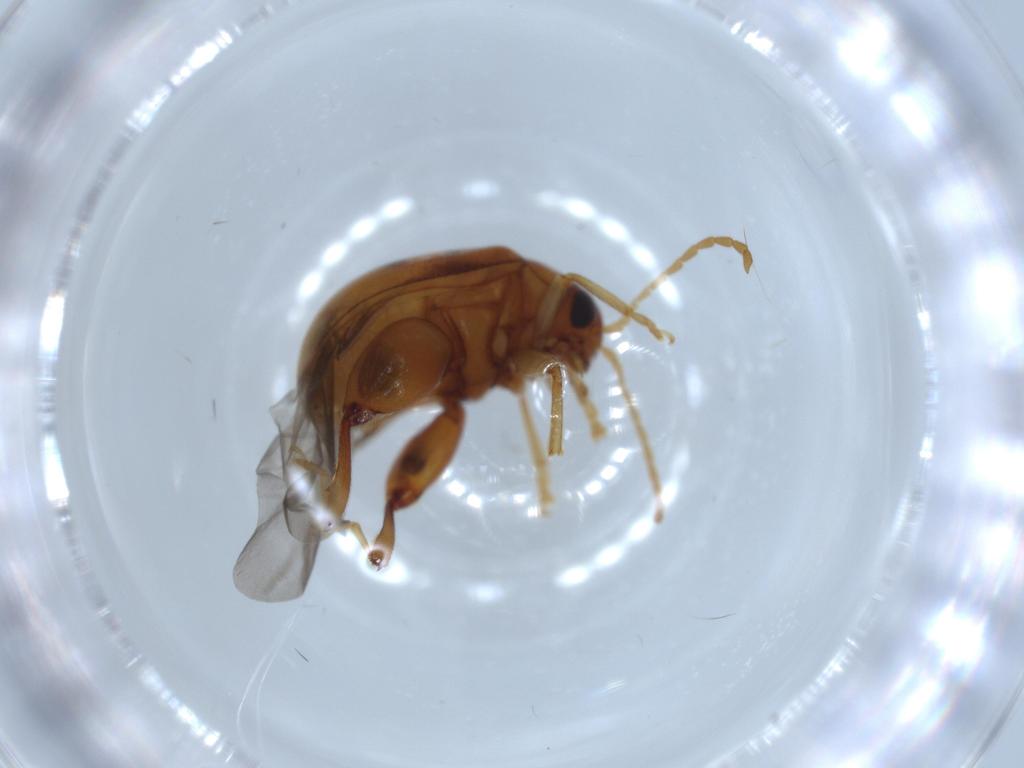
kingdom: Animalia
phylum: Arthropoda
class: Insecta
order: Coleoptera
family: Chrysomelidae
